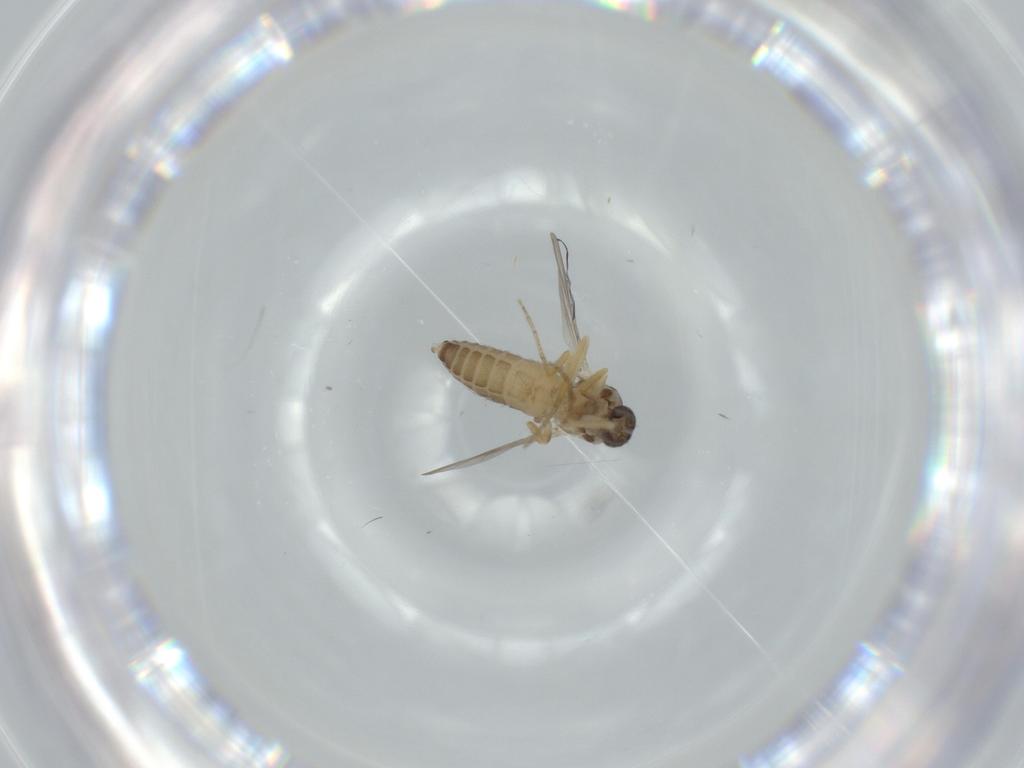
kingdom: Animalia
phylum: Arthropoda
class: Insecta
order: Diptera
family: Ceratopogonidae
